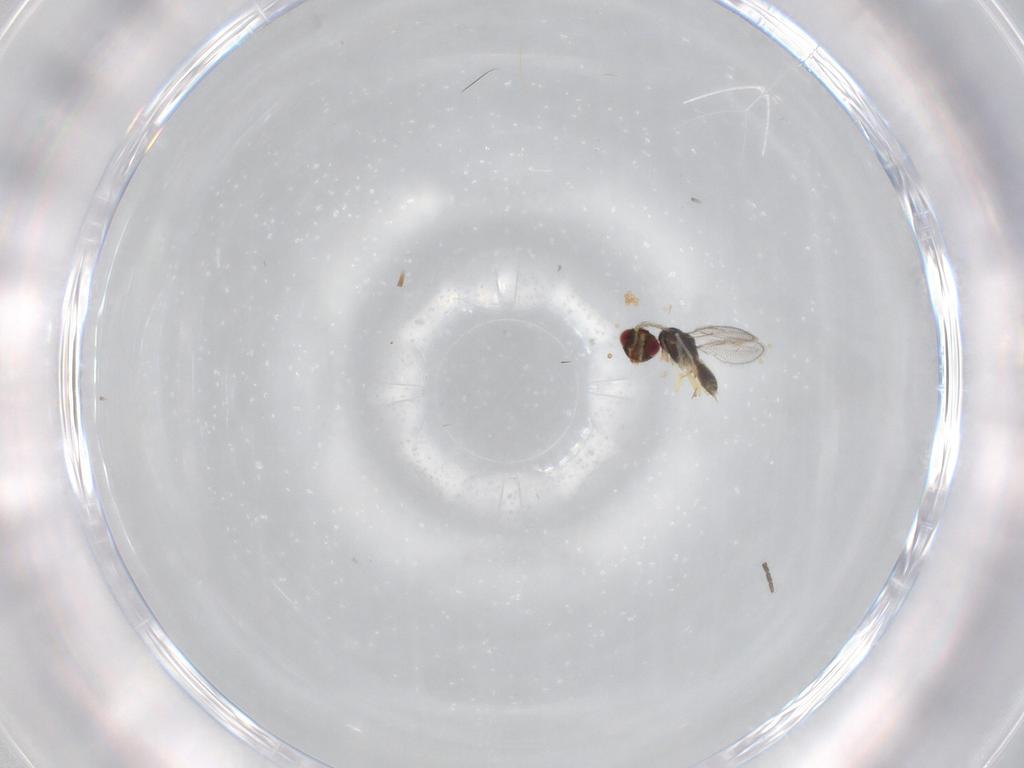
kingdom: Animalia
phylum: Arthropoda
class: Insecta
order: Hymenoptera
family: Eulophidae
